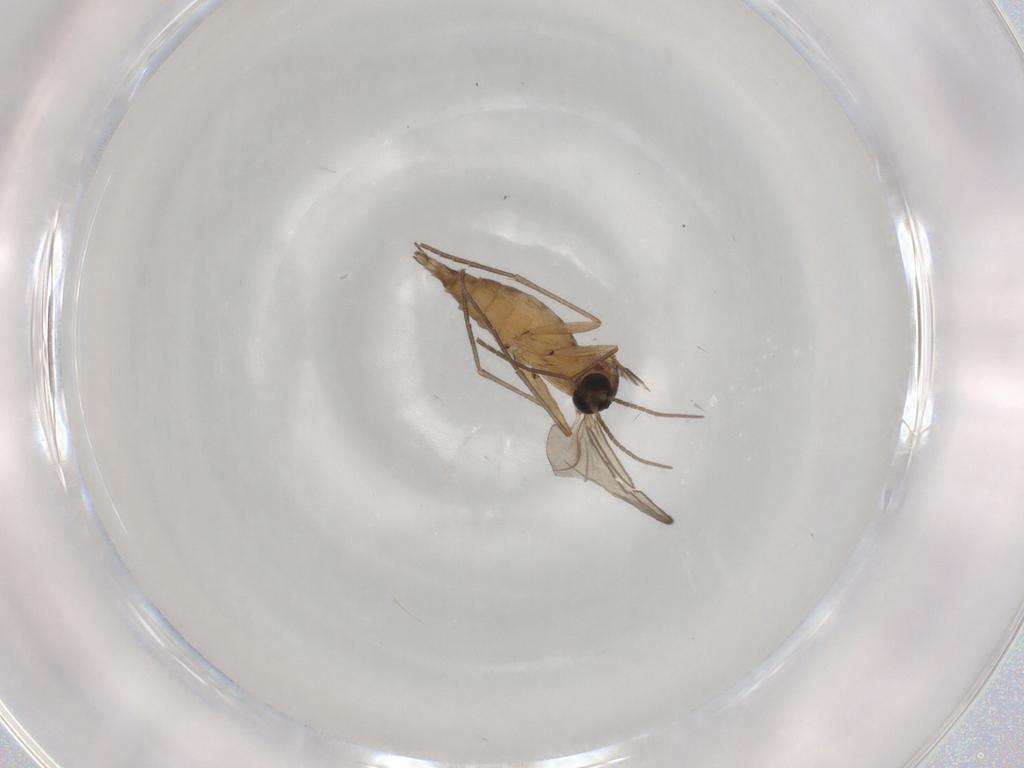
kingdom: Animalia
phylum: Arthropoda
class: Insecta
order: Diptera
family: Sciaridae
